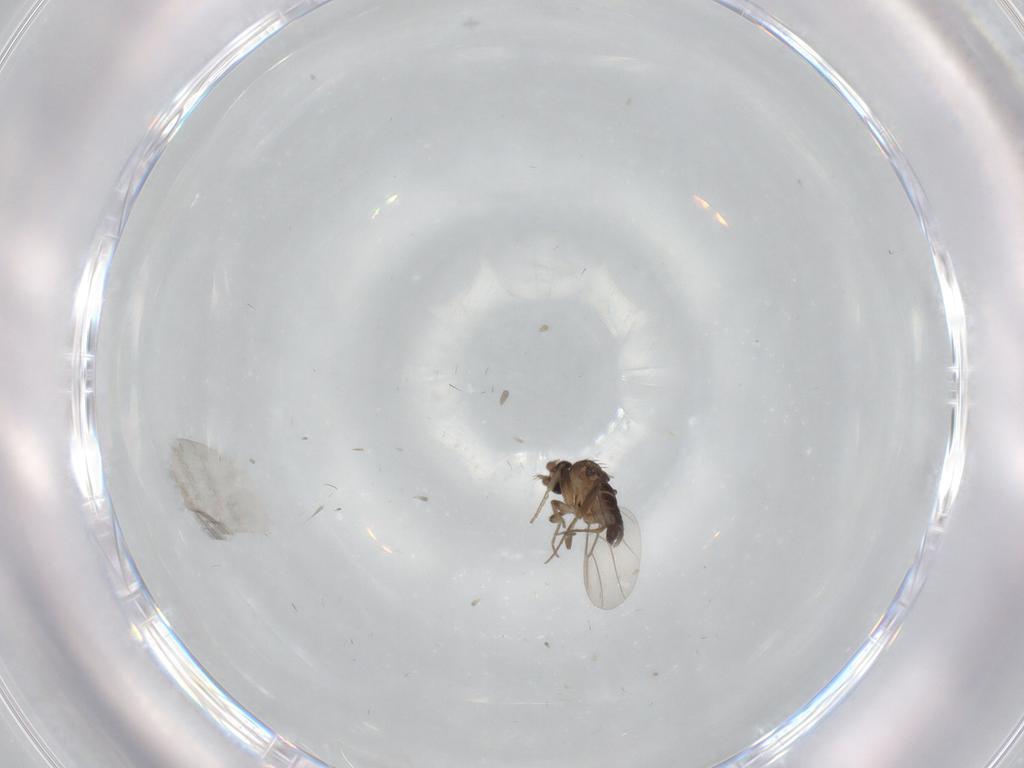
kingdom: Animalia
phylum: Arthropoda
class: Insecta
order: Diptera
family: Phoridae
